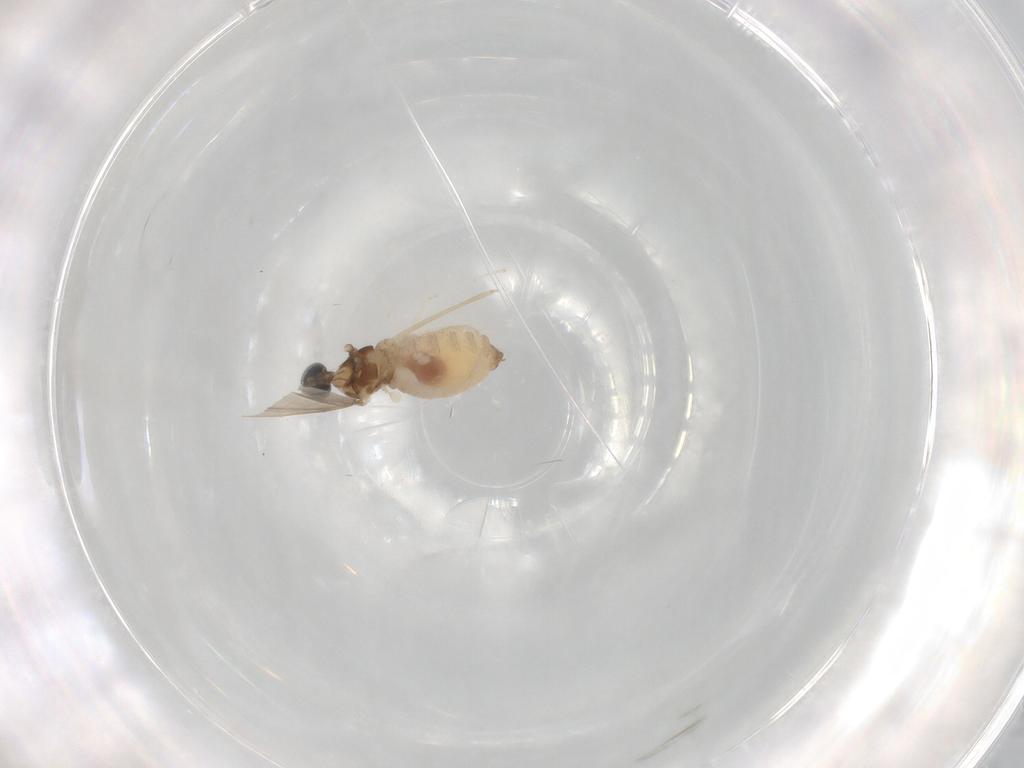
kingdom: Animalia
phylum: Arthropoda
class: Insecta
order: Diptera
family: Cecidomyiidae
